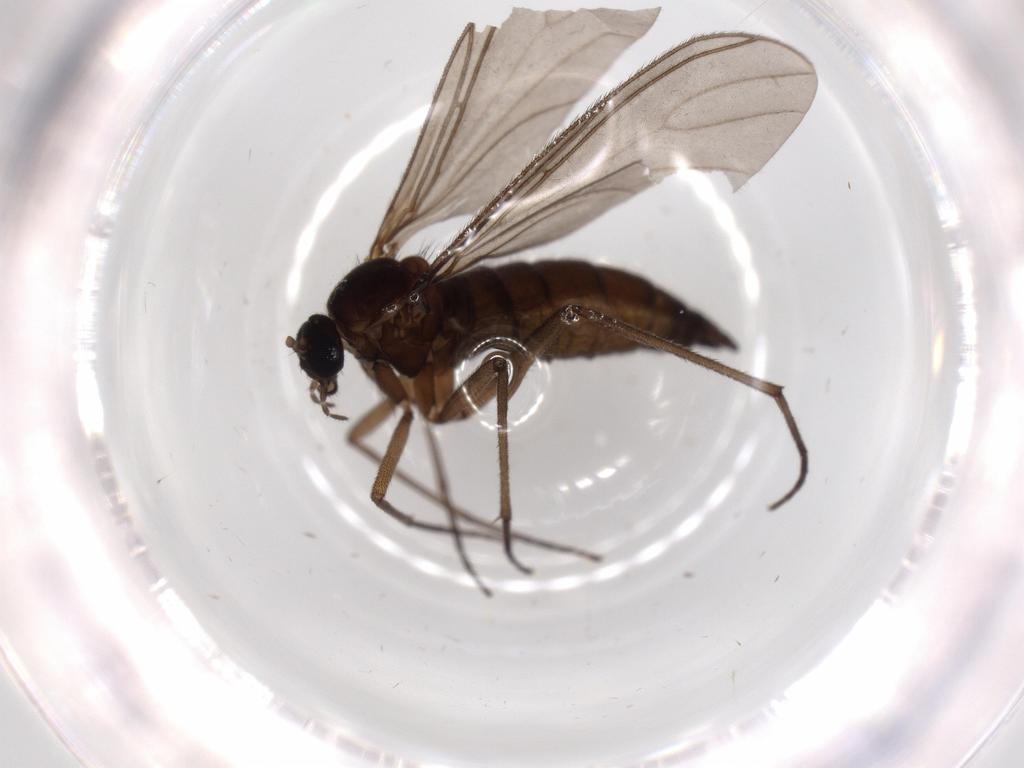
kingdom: Animalia
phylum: Arthropoda
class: Insecta
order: Diptera
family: Sciaridae
